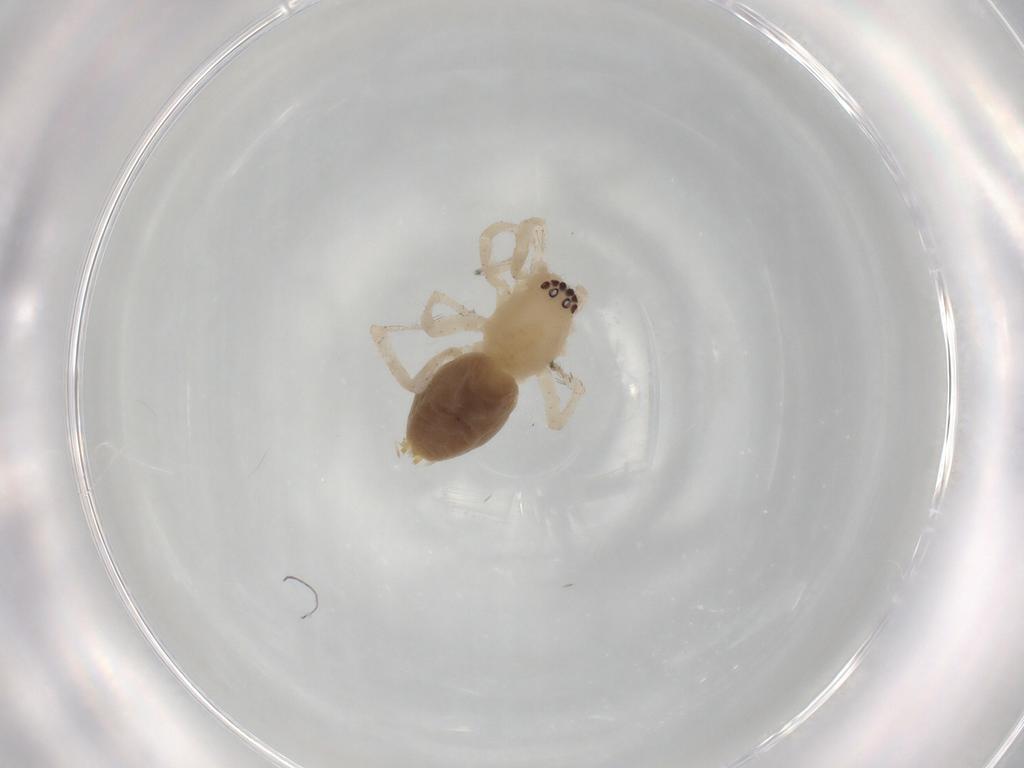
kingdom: Animalia
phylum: Arthropoda
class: Arachnida
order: Araneae
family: Clubionidae
